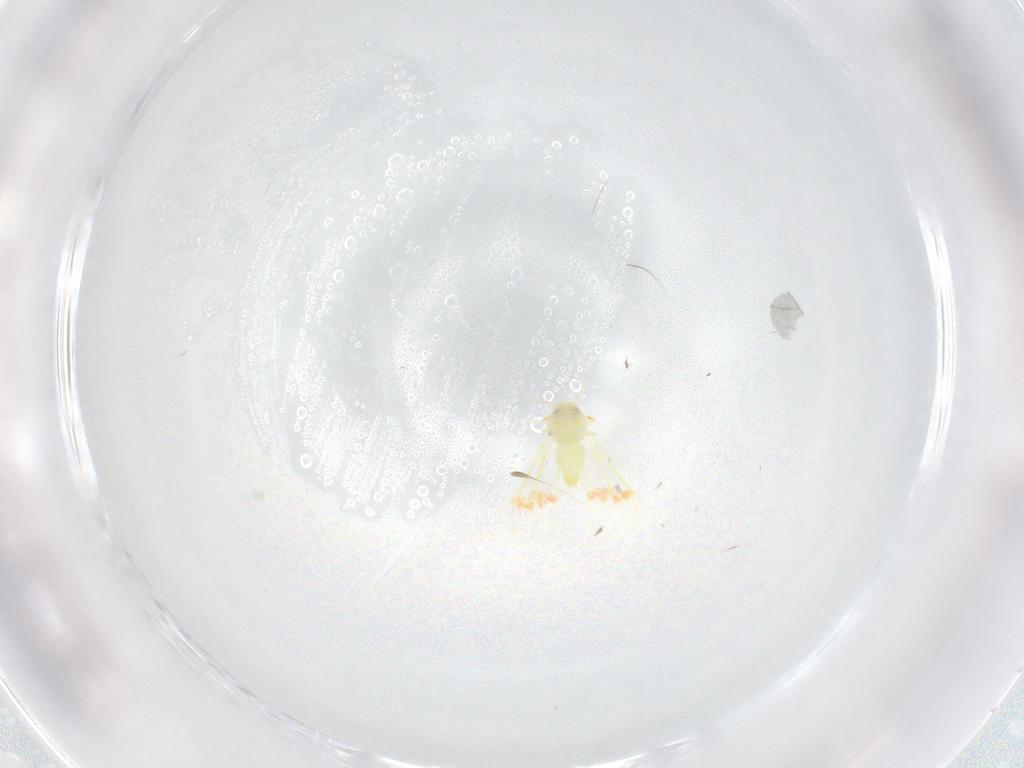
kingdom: Animalia
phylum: Arthropoda
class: Insecta
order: Hemiptera
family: Aleyrodidae
